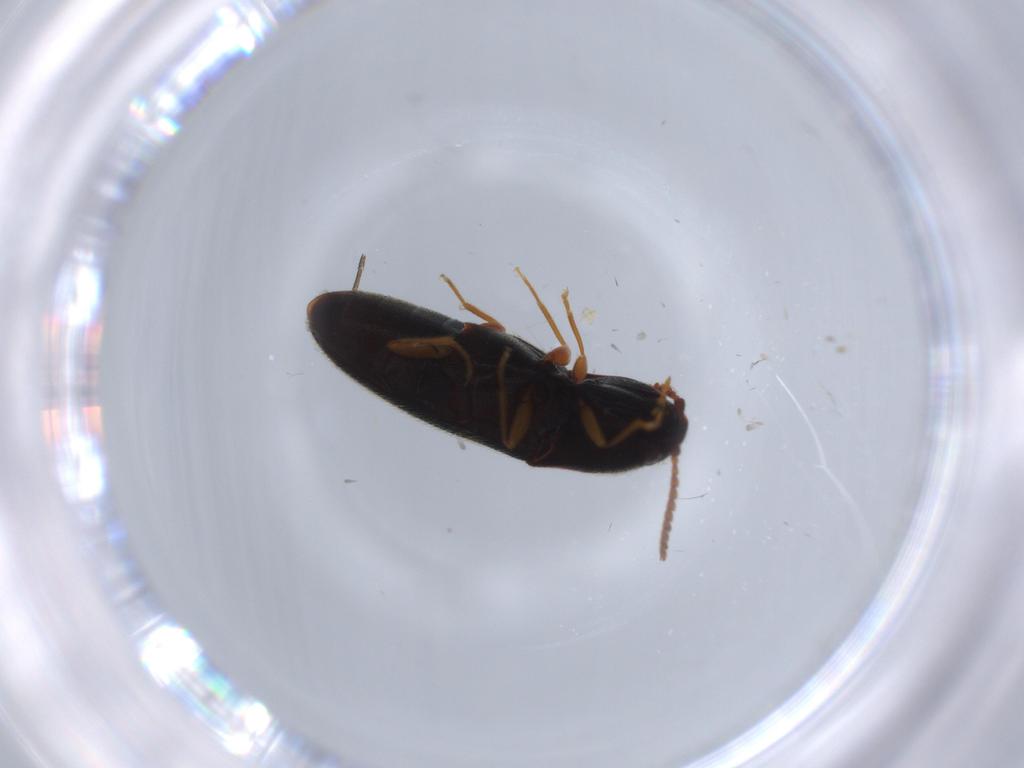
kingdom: Animalia
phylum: Arthropoda
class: Insecta
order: Coleoptera
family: Elateridae
